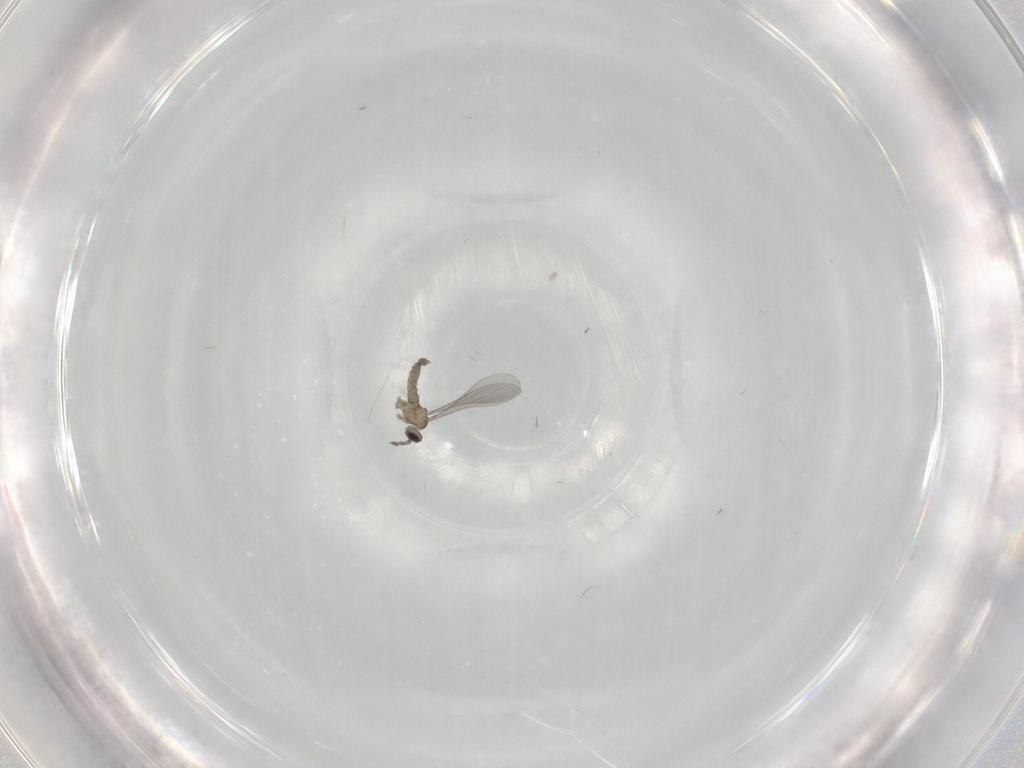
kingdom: Animalia
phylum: Arthropoda
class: Insecta
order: Diptera
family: Cecidomyiidae
